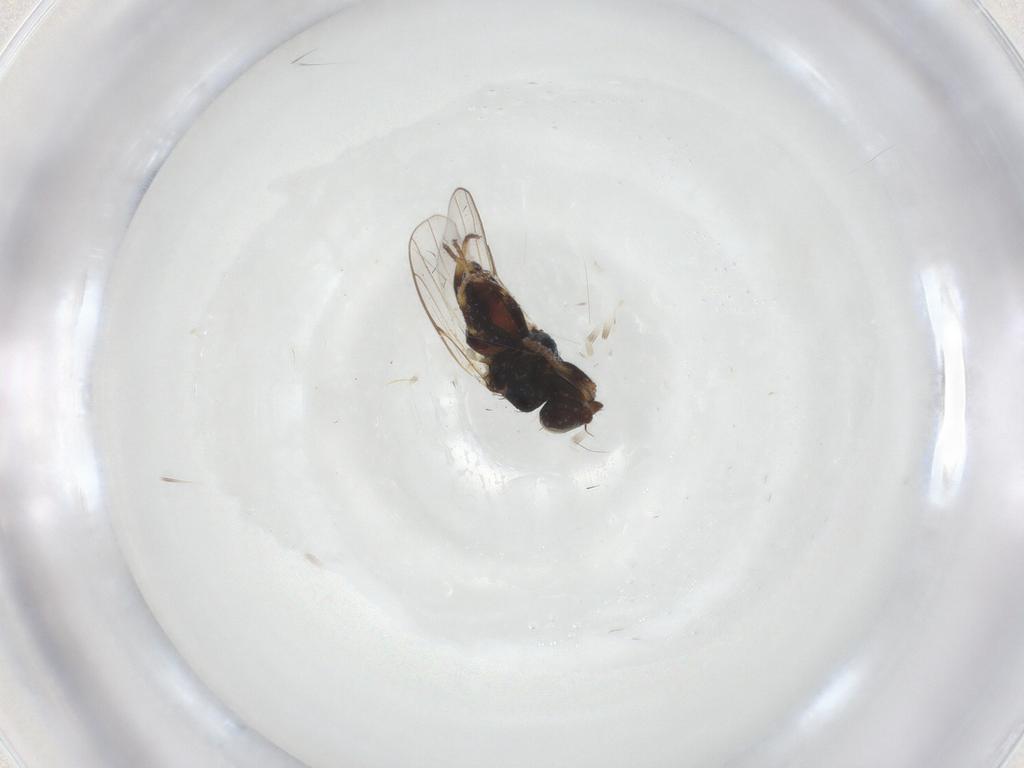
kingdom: Animalia
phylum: Arthropoda
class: Insecta
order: Diptera
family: Chloropidae
